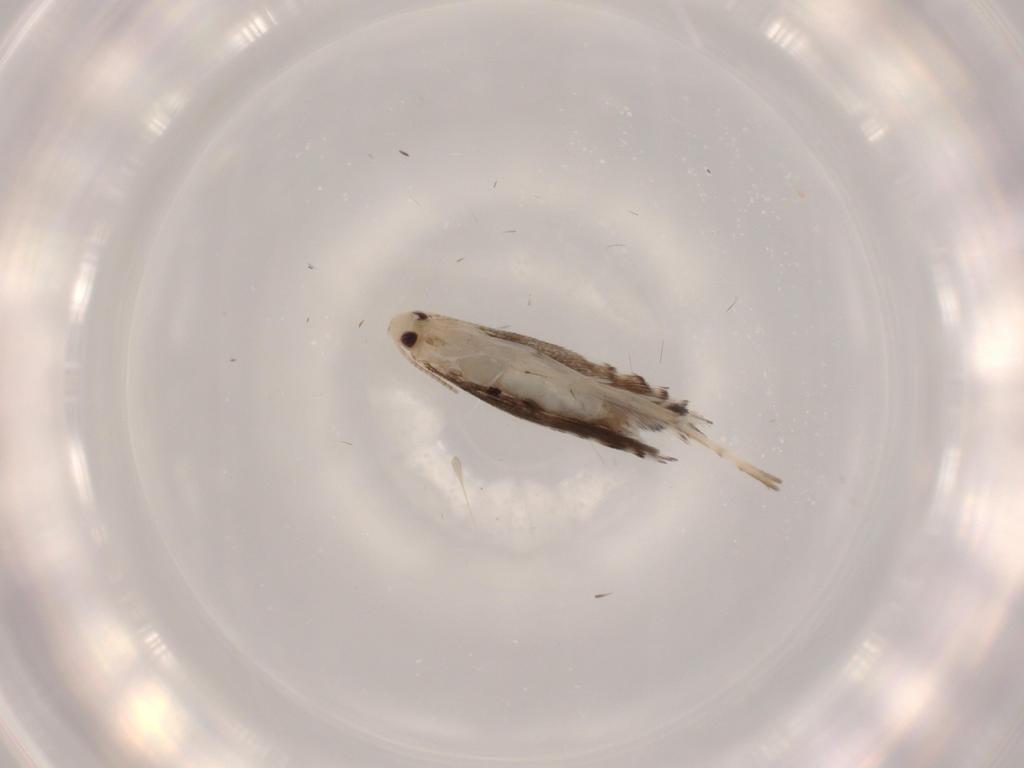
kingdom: Animalia
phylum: Arthropoda
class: Insecta
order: Lepidoptera
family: Gracillariidae
